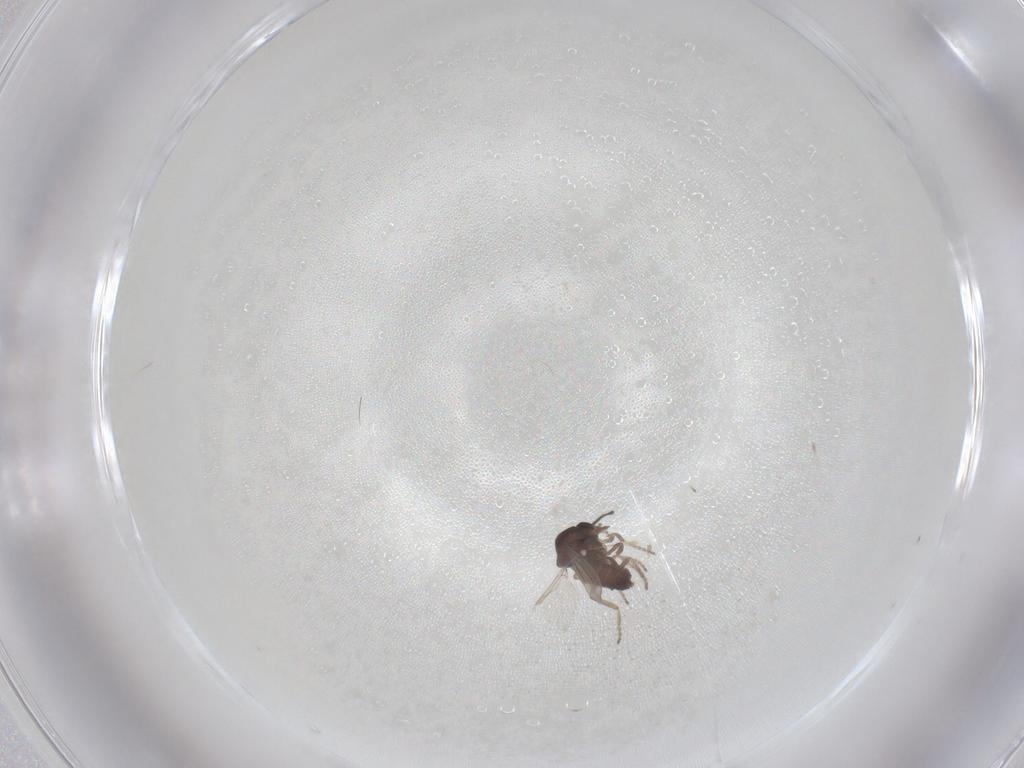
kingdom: Animalia
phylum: Arthropoda
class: Insecta
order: Diptera
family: Ceratopogonidae
